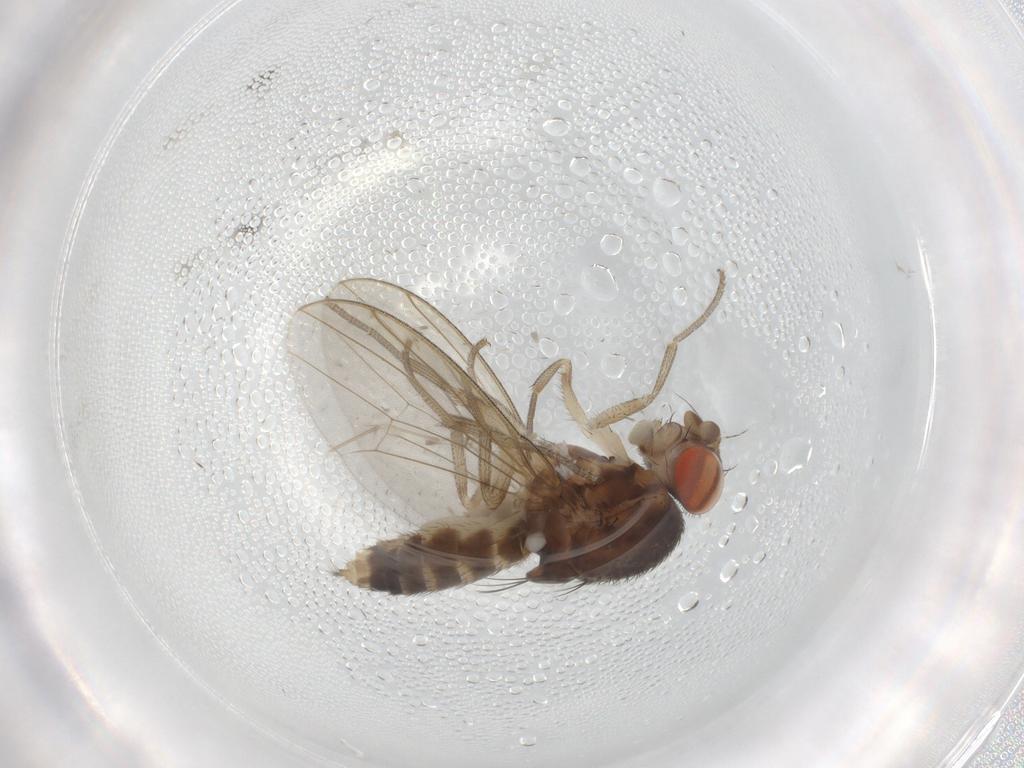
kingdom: Animalia
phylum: Arthropoda
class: Insecta
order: Diptera
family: Drosophilidae
